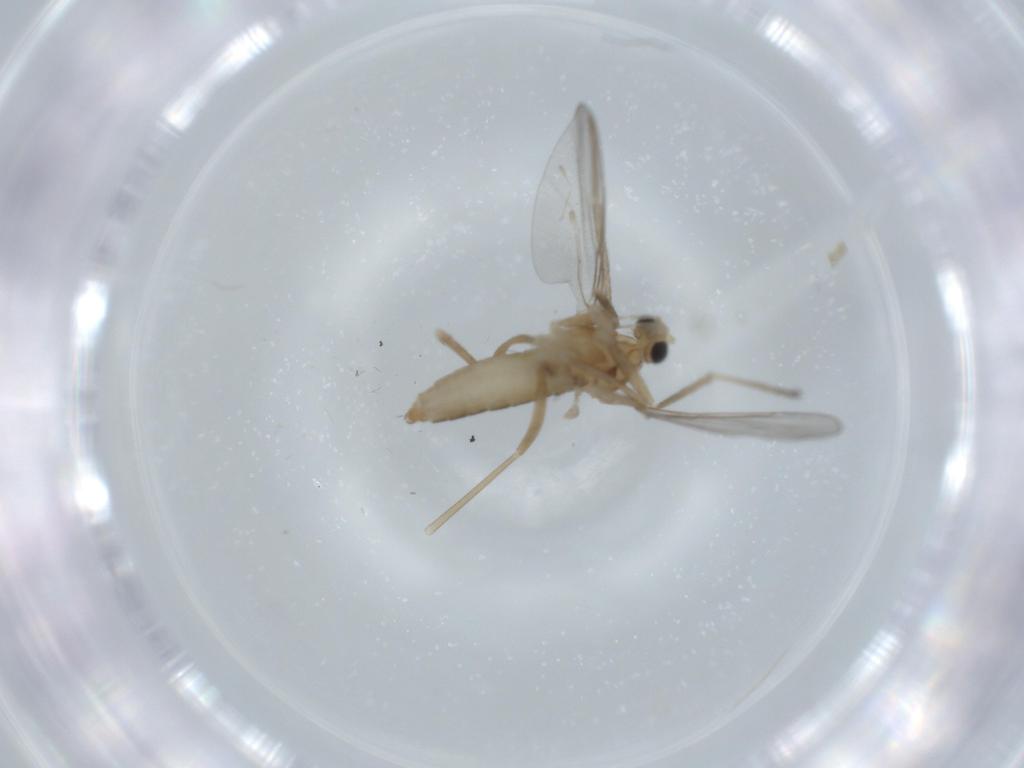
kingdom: Animalia
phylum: Arthropoda
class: Insecta
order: Diptera
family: Cecidomyiidae
